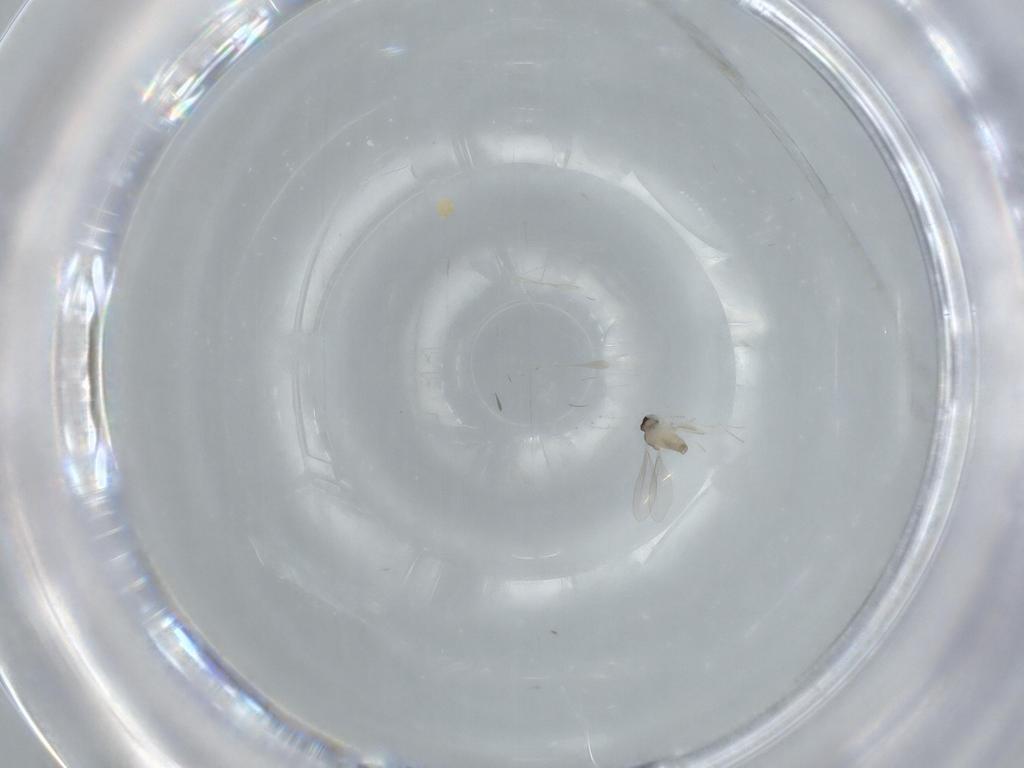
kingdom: Animalia
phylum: Arthropoda
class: Insecta
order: Diptera
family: Cecidomyiidae
